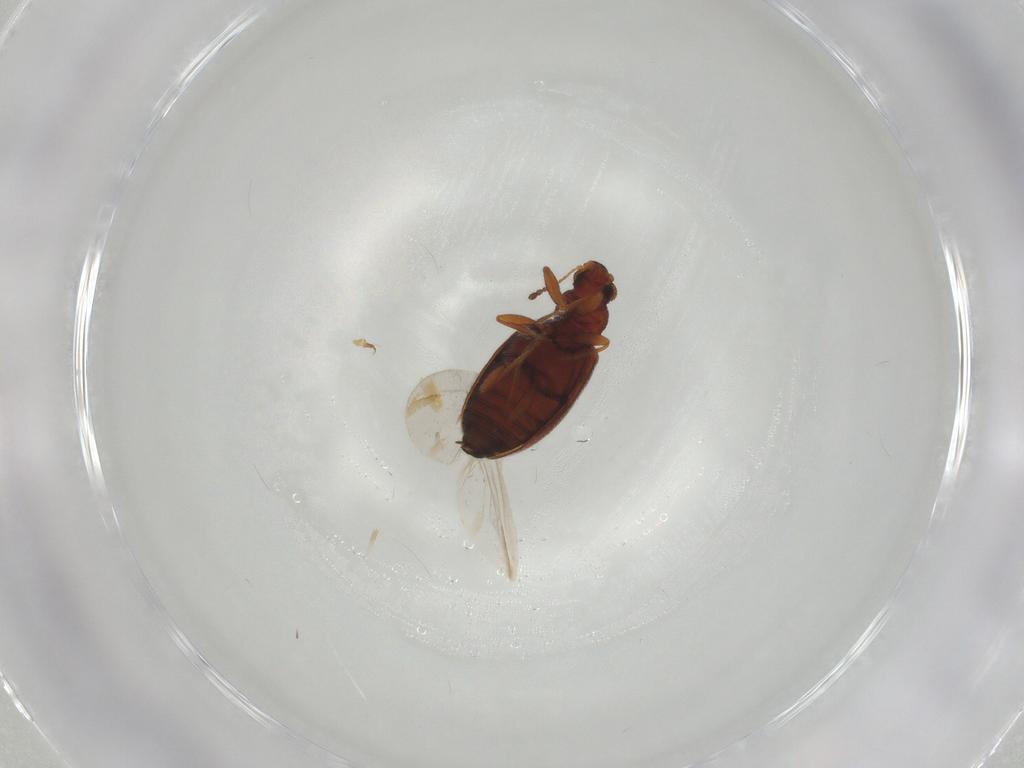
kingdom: Animalia
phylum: Arthropoda
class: Insecta
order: Coleoptera
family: Latridiidae
